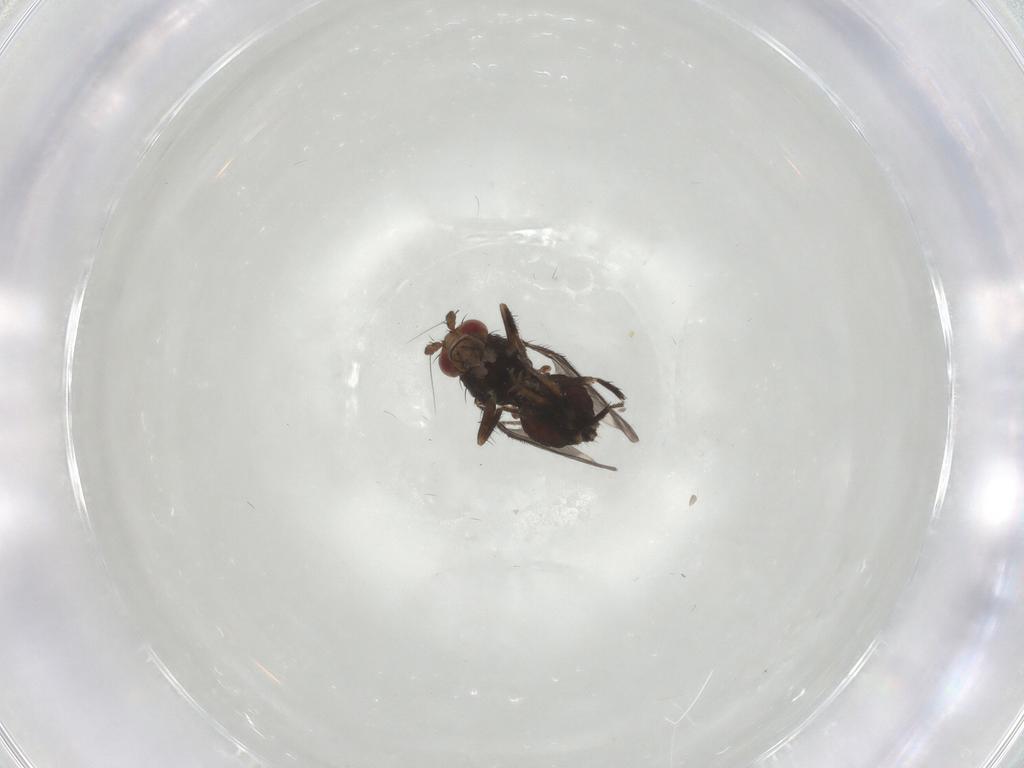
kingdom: Animalia
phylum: Arthropoda
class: Insecta
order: Diptera
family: Sphaeroceridae
